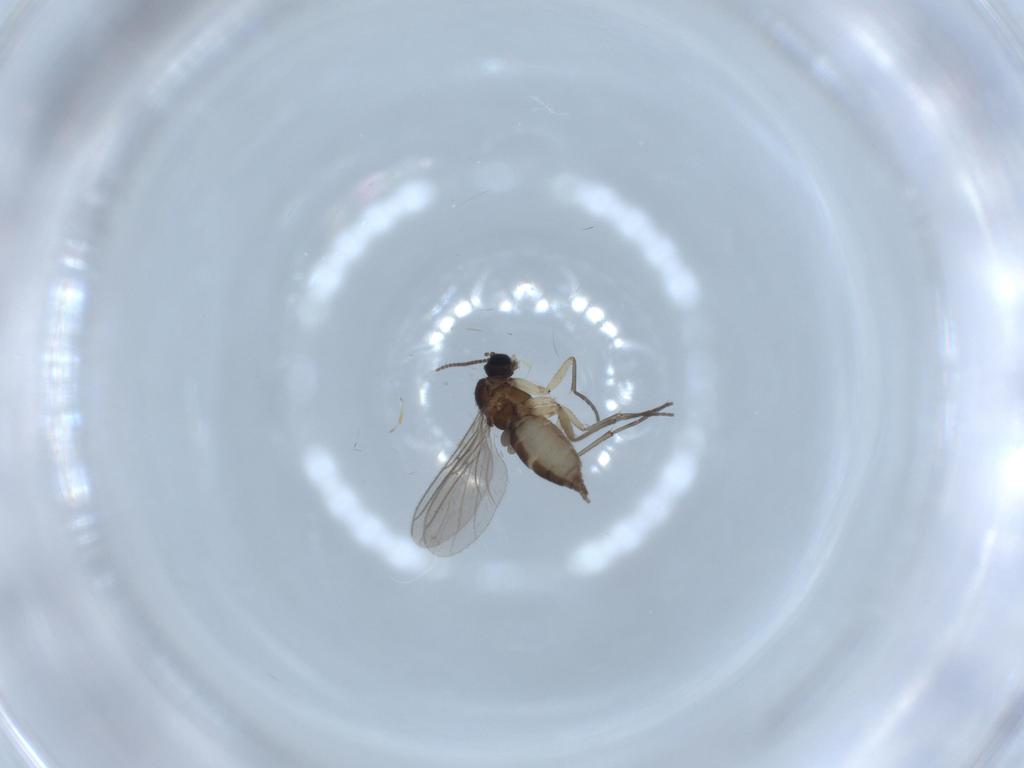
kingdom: Animalia
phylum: Arthropoda
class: Insecta
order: Diptera
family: Sciaridae
